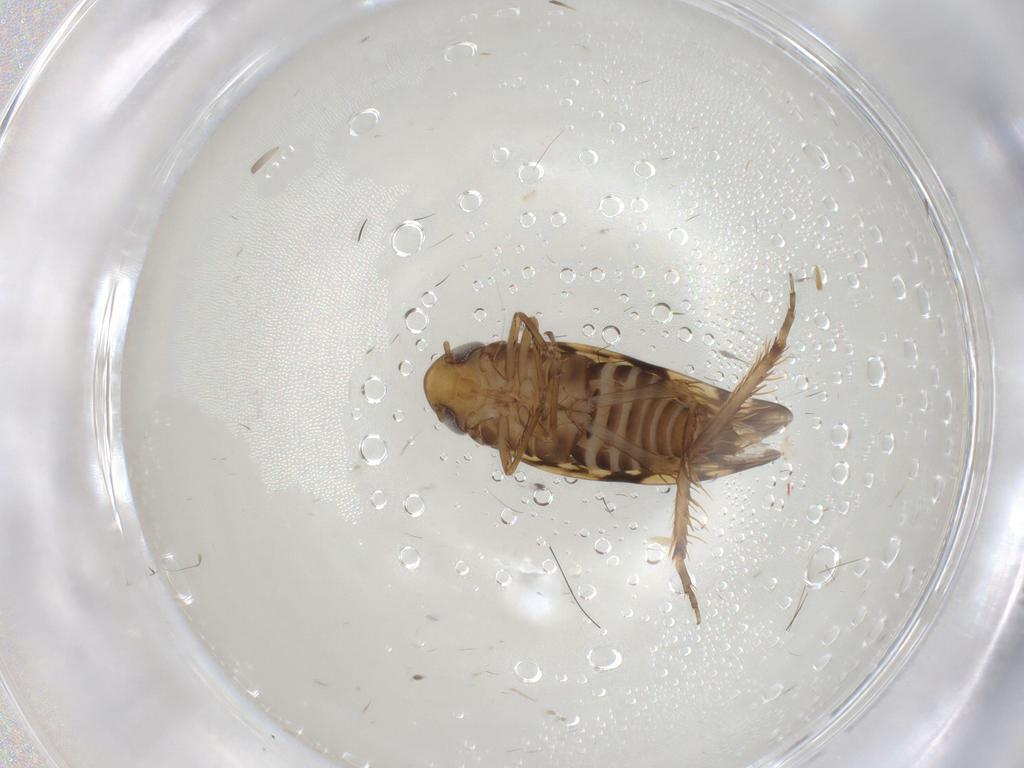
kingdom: Animalia
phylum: Arthropoda
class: Insecta
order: Hemiptera
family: Cicadellidae
